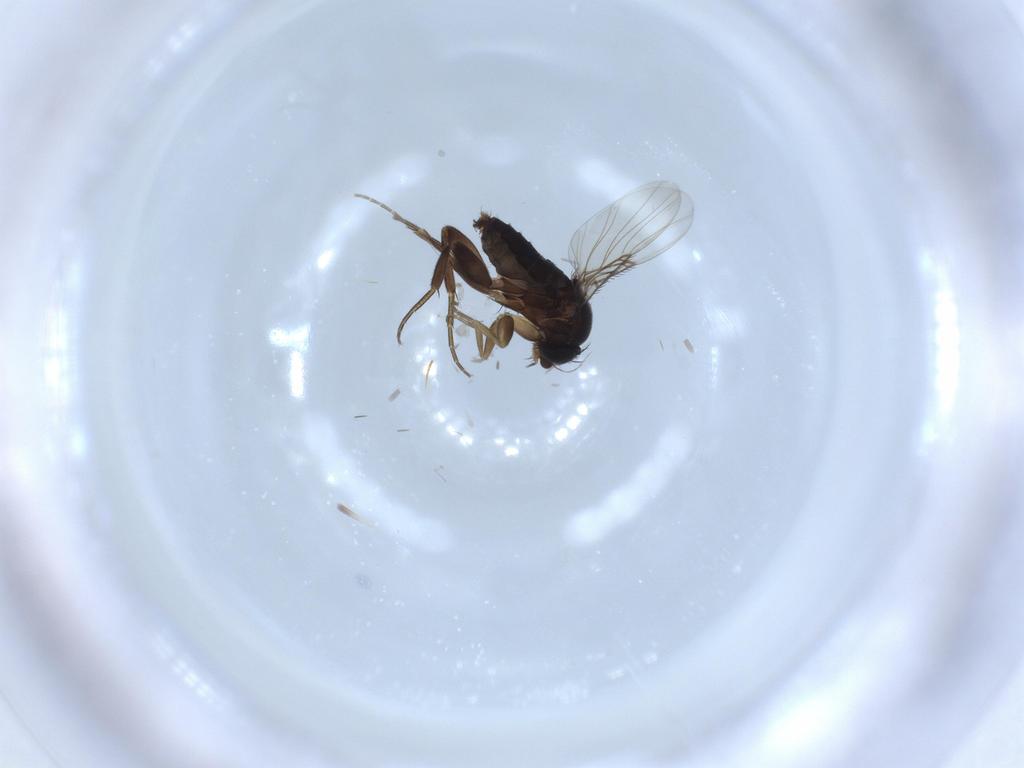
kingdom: Animalia
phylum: Arthropoda
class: Insecta
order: Diptera
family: Phoridae
